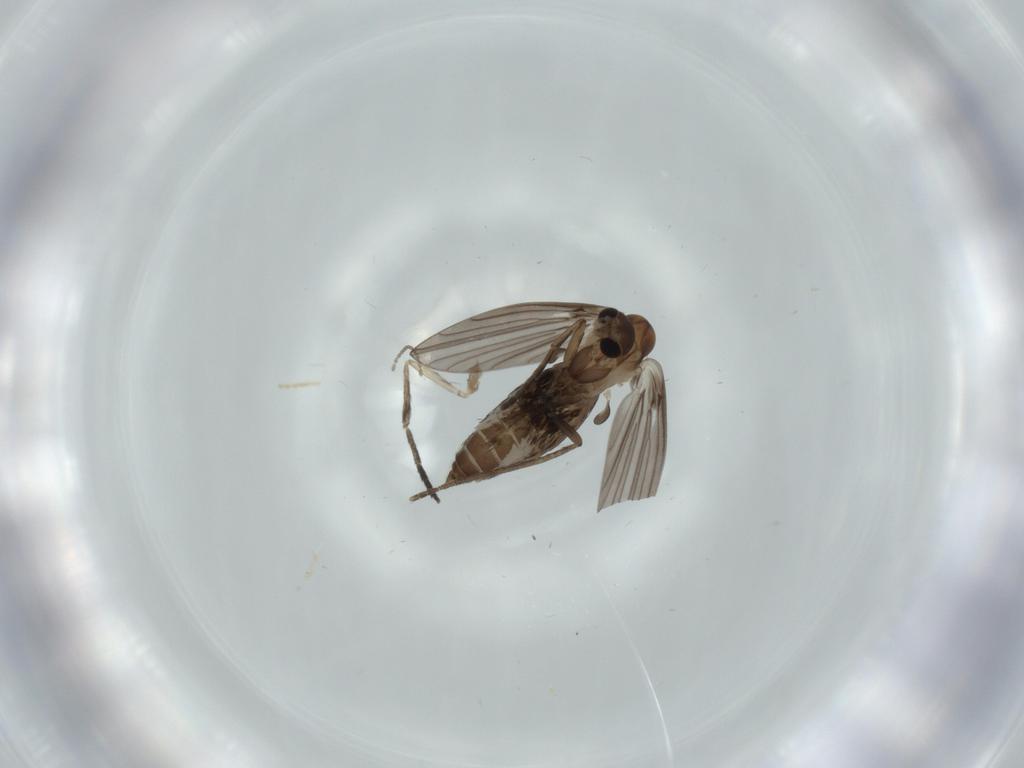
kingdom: Animalia
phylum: Arthropoda
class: Insecta
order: Diptera
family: Psychodidae
